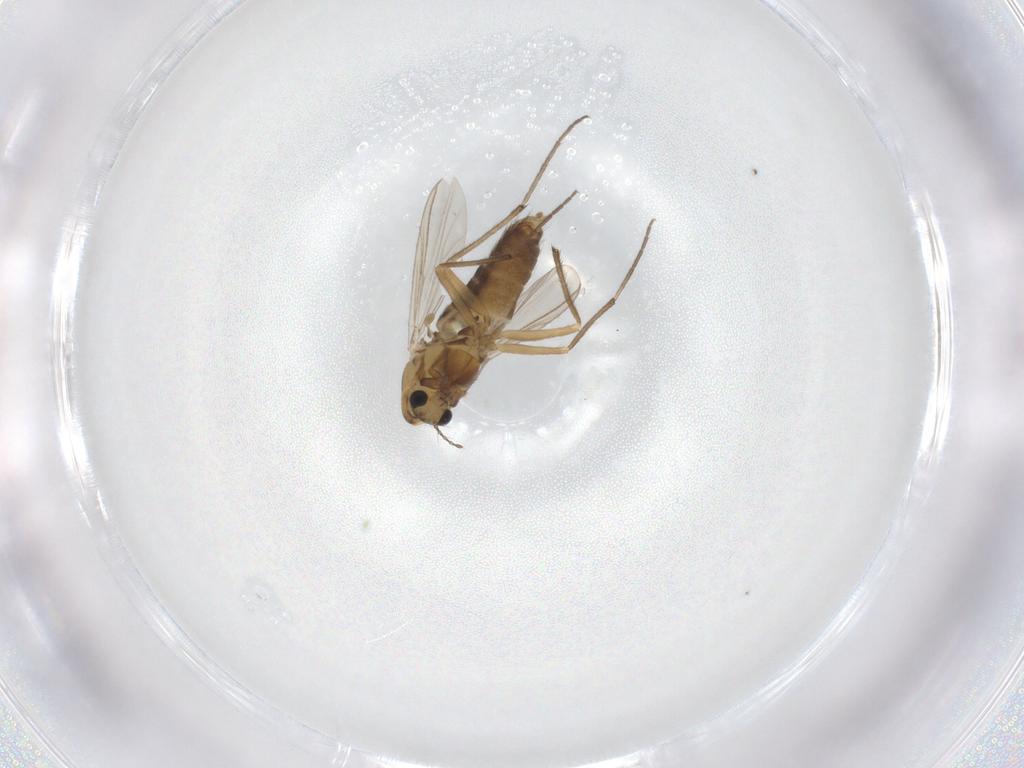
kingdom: Animalia
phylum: Arthropoda
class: Insecta
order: Diptera
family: Chironomidae
